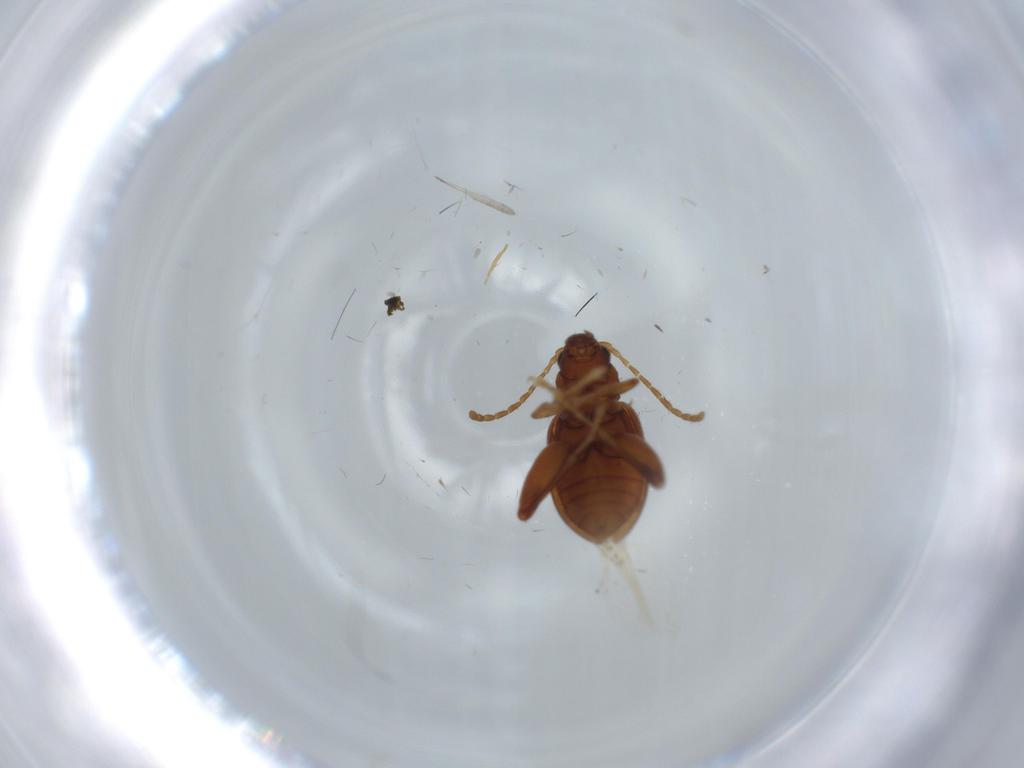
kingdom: Animalia
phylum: Arthropoda
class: Insecta
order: Coleoptera
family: Chrysomelidae
